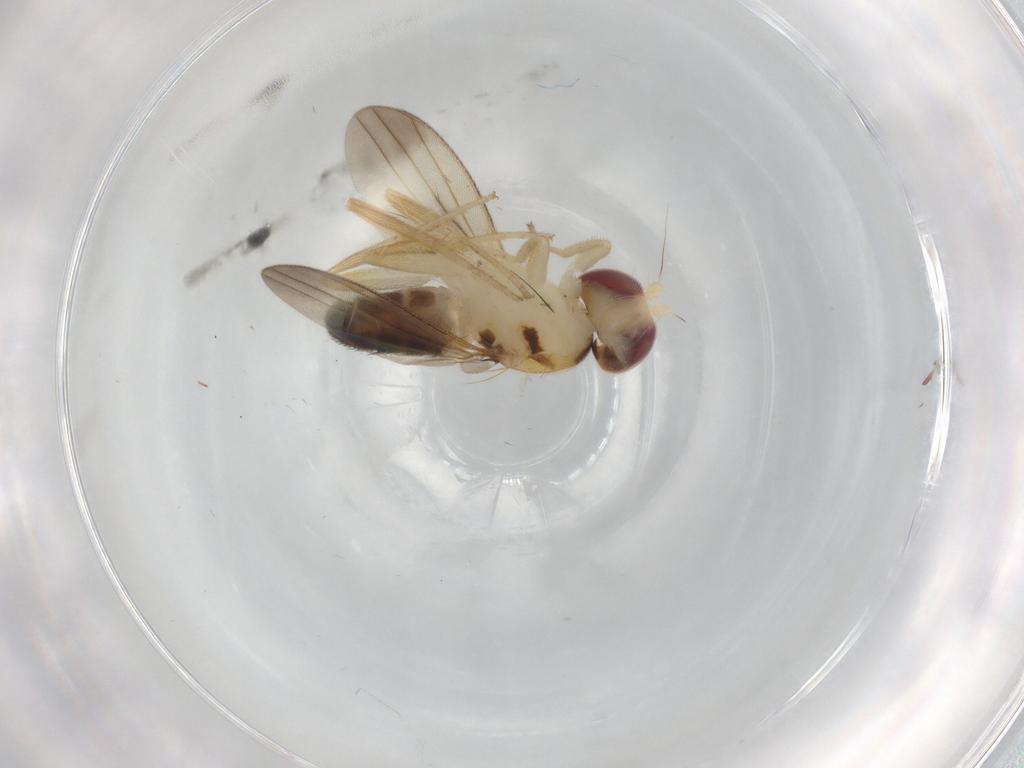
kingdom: Animalia
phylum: Arthropoda
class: Insecta
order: Diptera
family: Clusiidae
